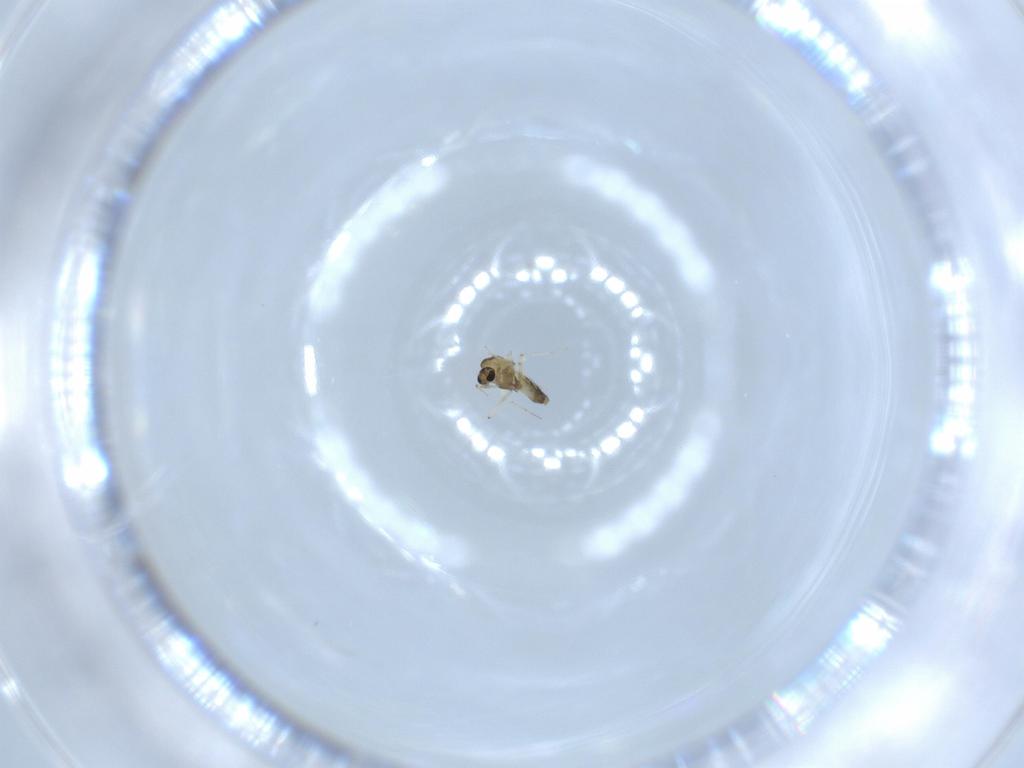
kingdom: Animalia
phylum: Arthropoda
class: Insecta
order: Diptera
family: Chironomidae
